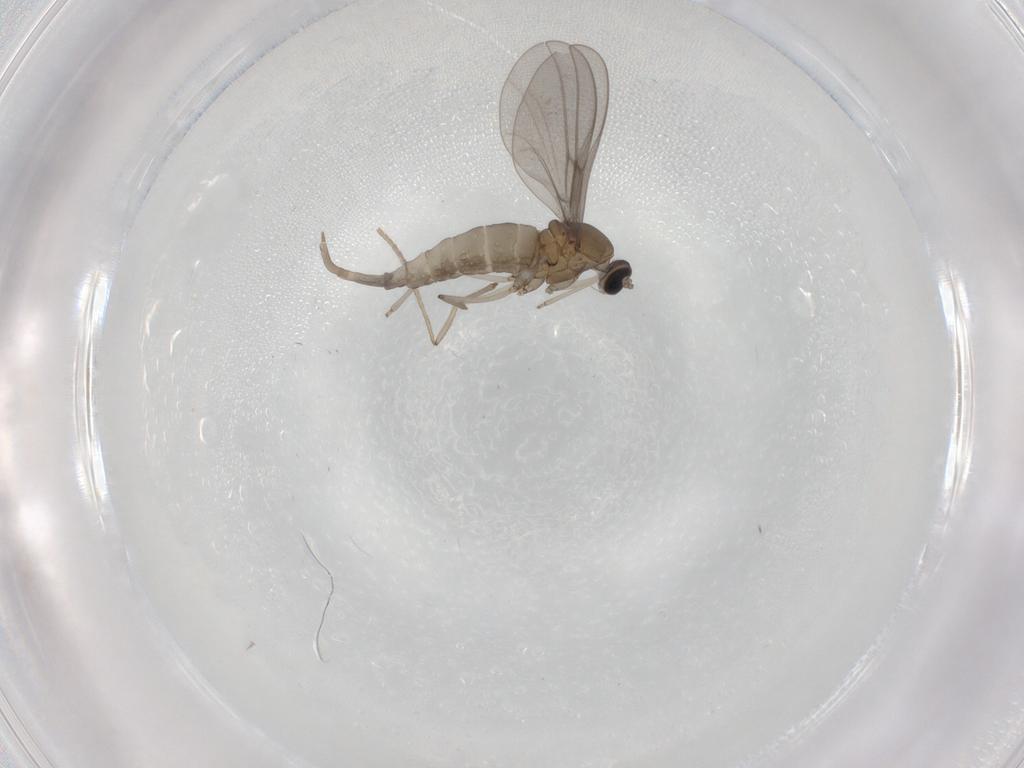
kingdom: Animalia
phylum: Arthropoda
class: Insecta
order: Diptera
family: Psychodidae
